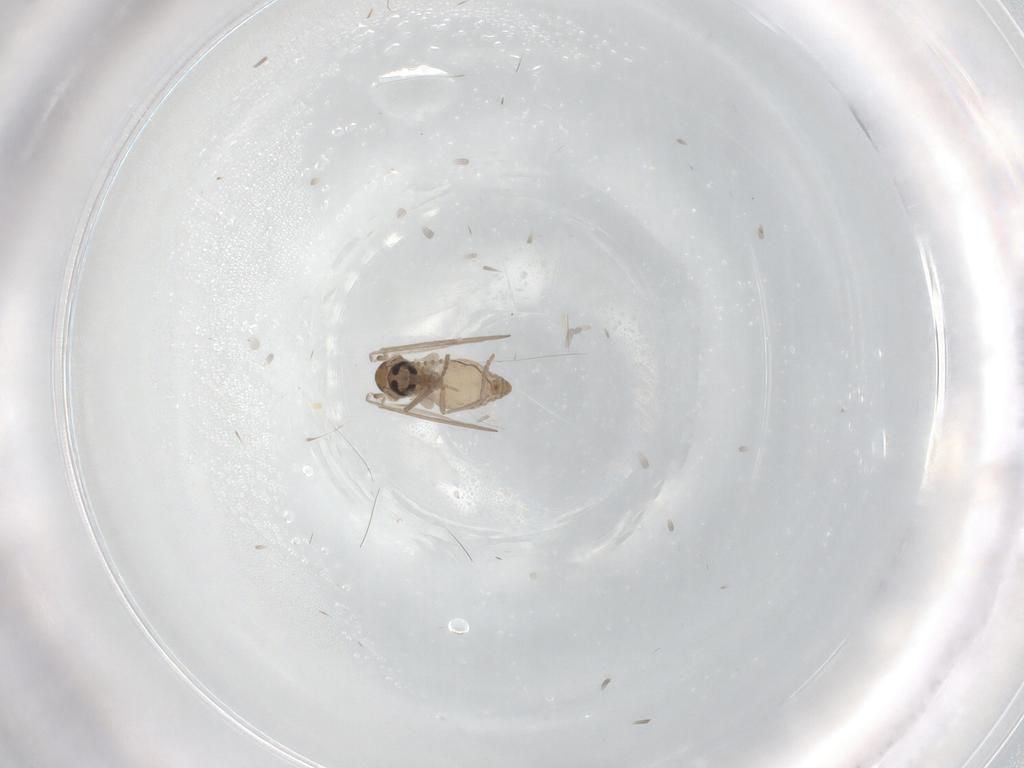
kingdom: Animalia
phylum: Arthropoda
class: Insecta
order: Diptera
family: Psychodidae
